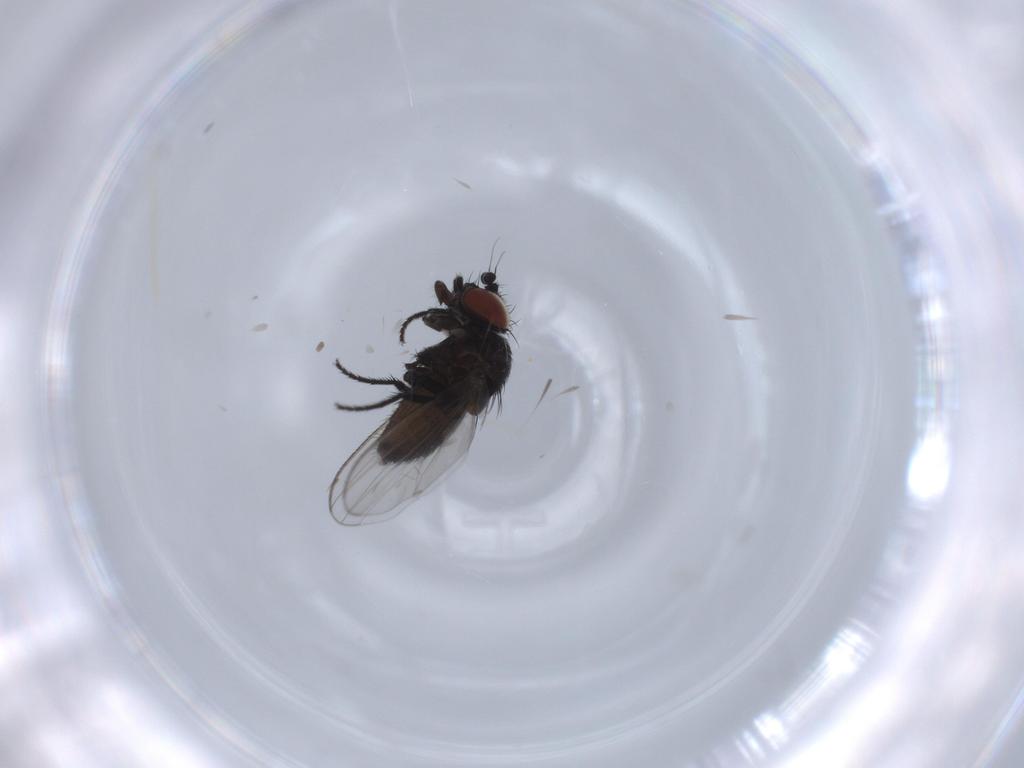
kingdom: Animalia
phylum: Arthropoda
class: Insecta
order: Diptera
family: Milichiidae
